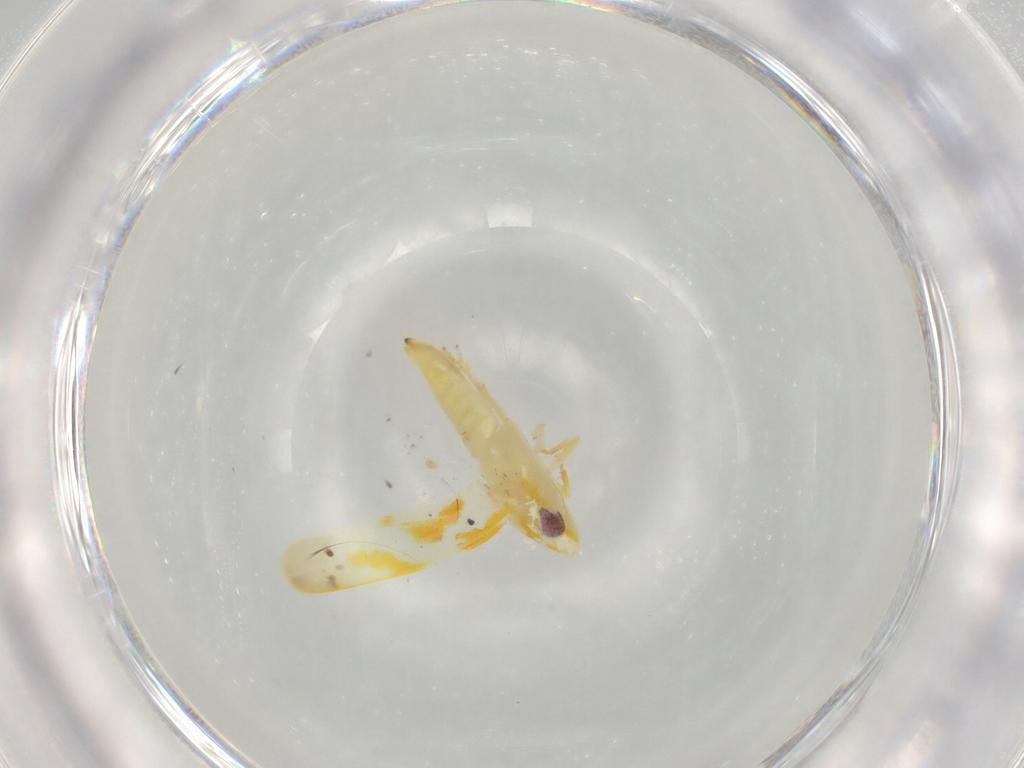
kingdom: Animalia
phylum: Arthropoda
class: Insecta
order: Hemiptera
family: Cicadellidae
